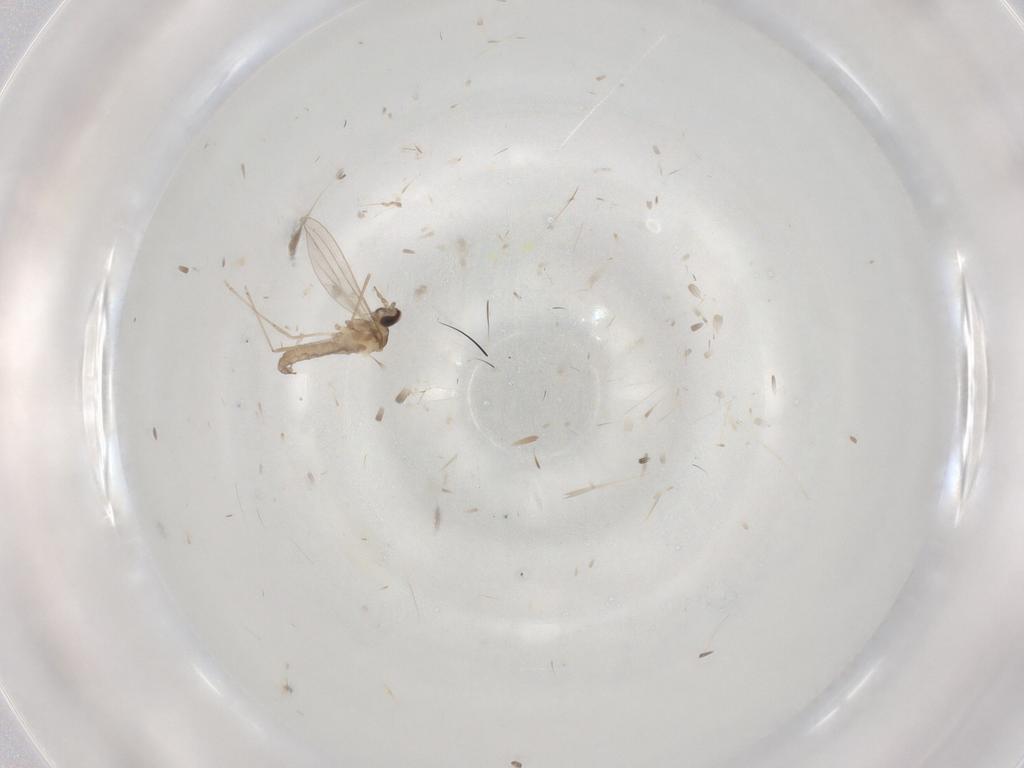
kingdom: Animalia
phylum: Arthropoda
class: Insecta
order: Diptera
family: Cecidomyiidae
